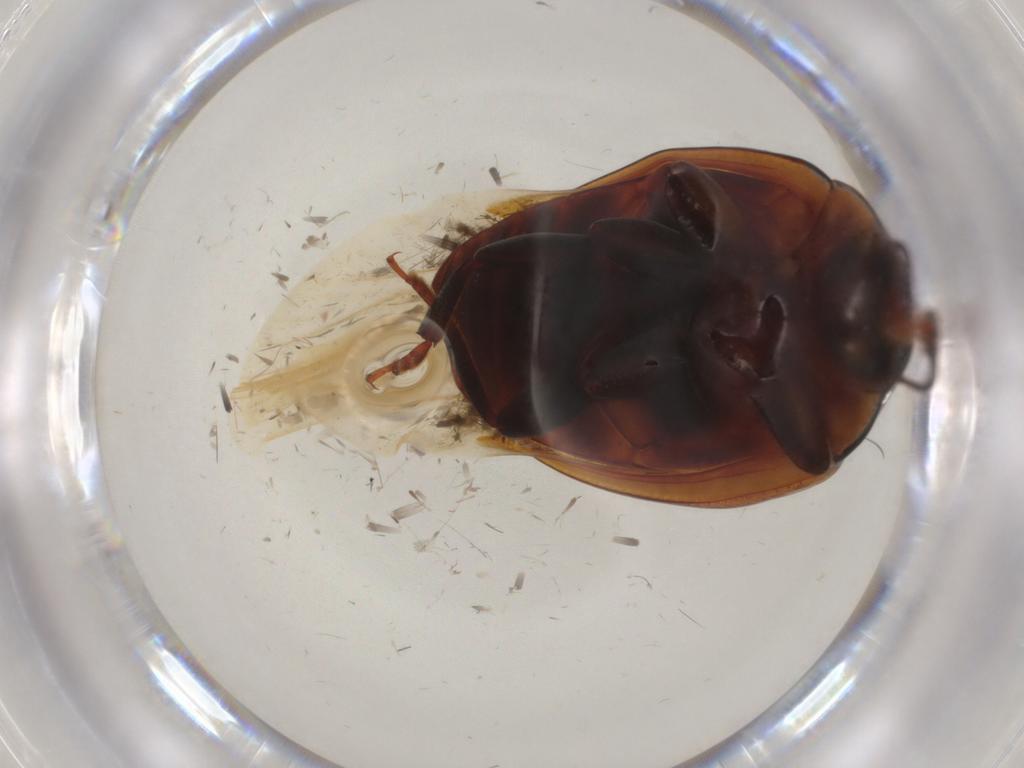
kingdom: Animalia
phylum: Arthropoda
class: Insecta
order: Coleoptera
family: Zopheridae
